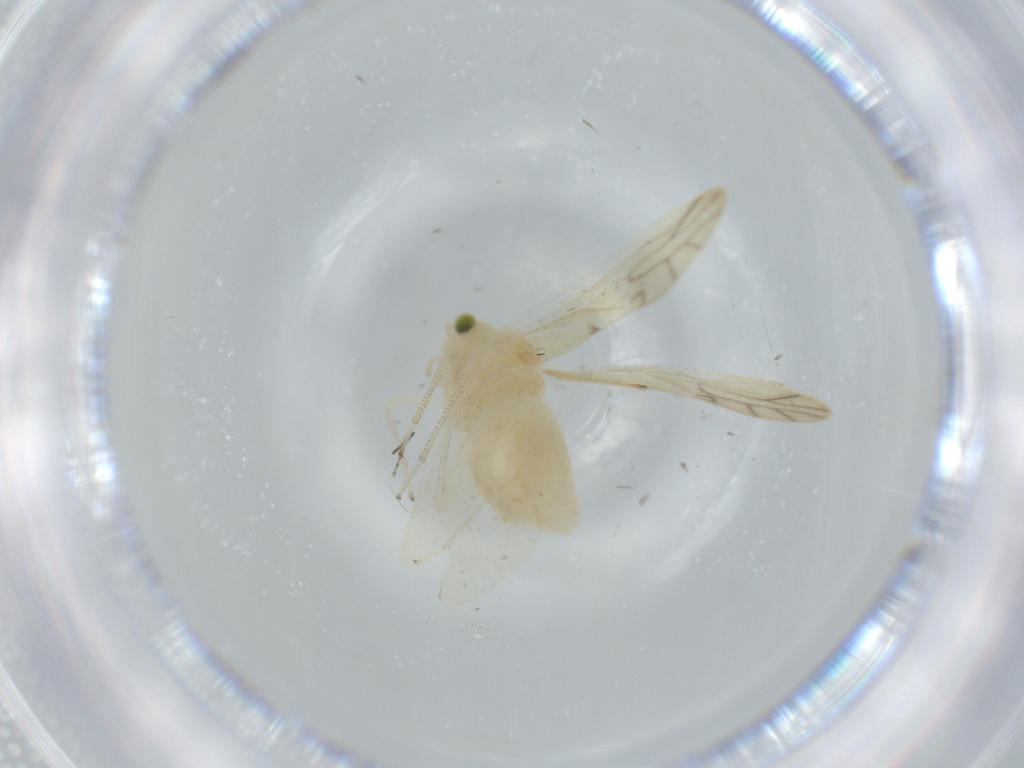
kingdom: Animalia
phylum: Arthropoda
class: Insecta
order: Psocodea
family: Caeciliusidae
